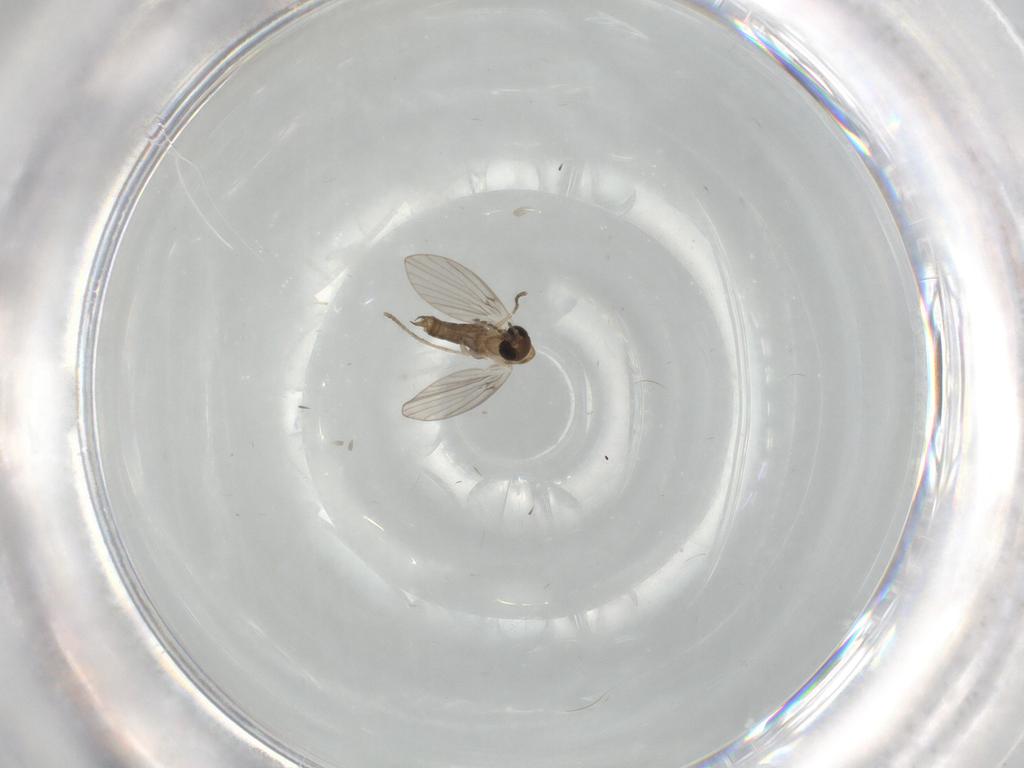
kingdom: Animalia
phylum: Arthropoda
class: Insecta
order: Diptera
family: Psychodidae
